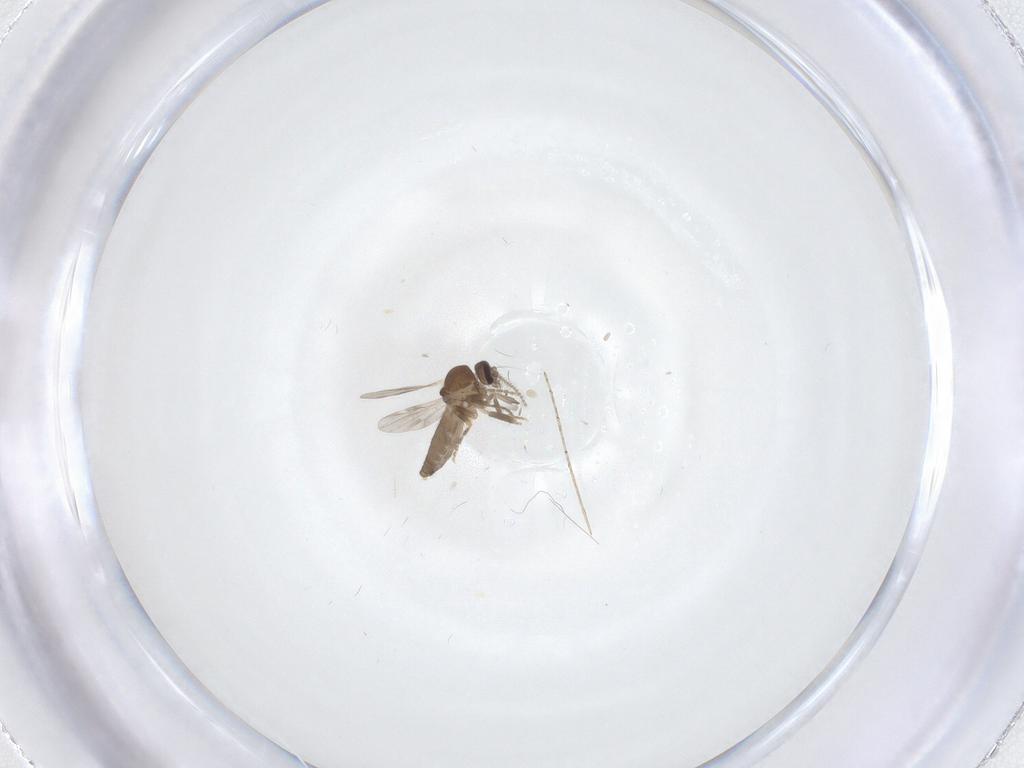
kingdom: Animalia
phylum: Arthropoda
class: Insecta
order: Diptera
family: Ceratopogonidae
